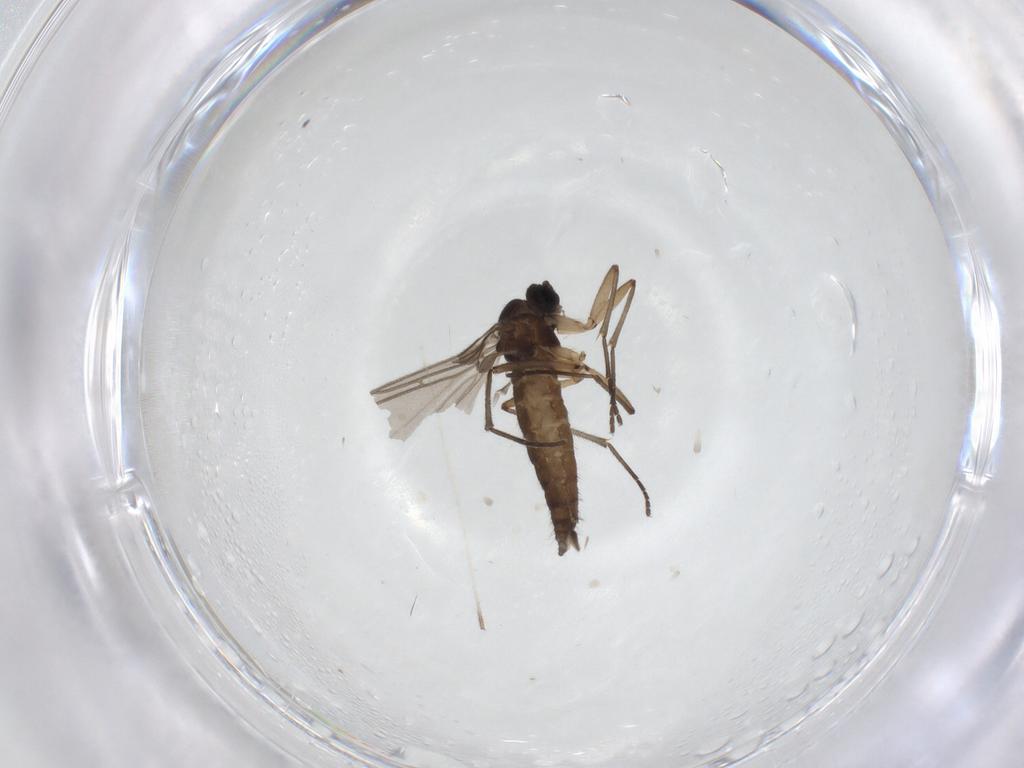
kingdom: Animalia
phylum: Arthropoda
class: Insecta
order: Diptera
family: Sciaridae
